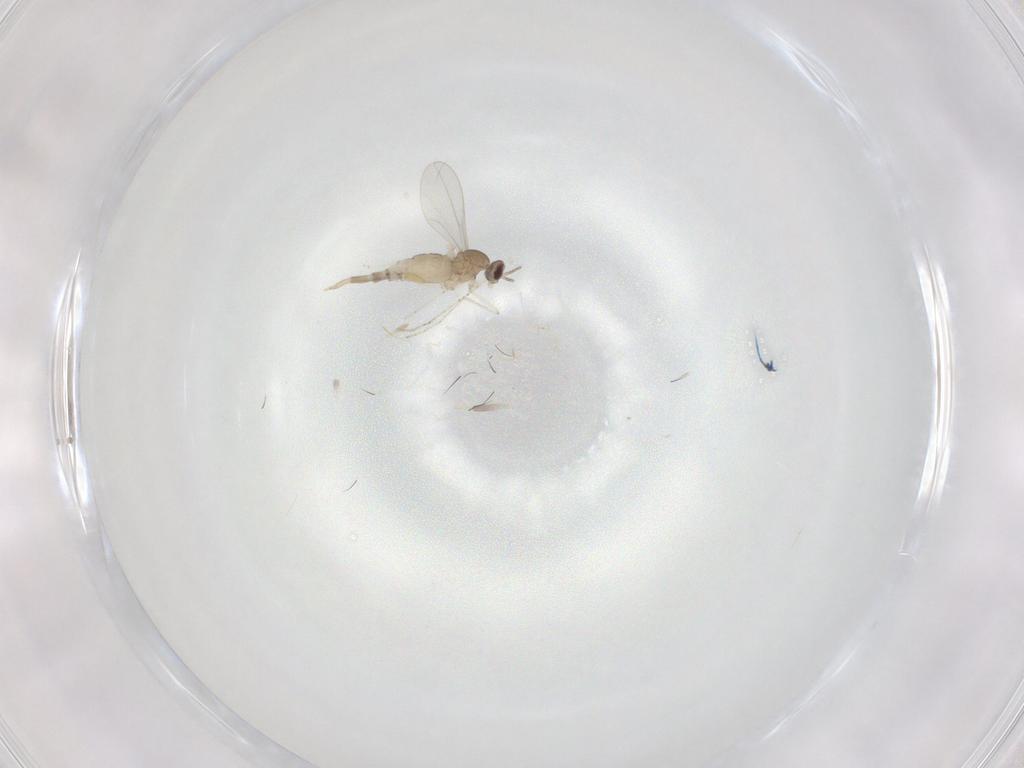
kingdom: Animalia
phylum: Arthropoda
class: Insecta
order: Diptera
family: Cecidomyiidae
